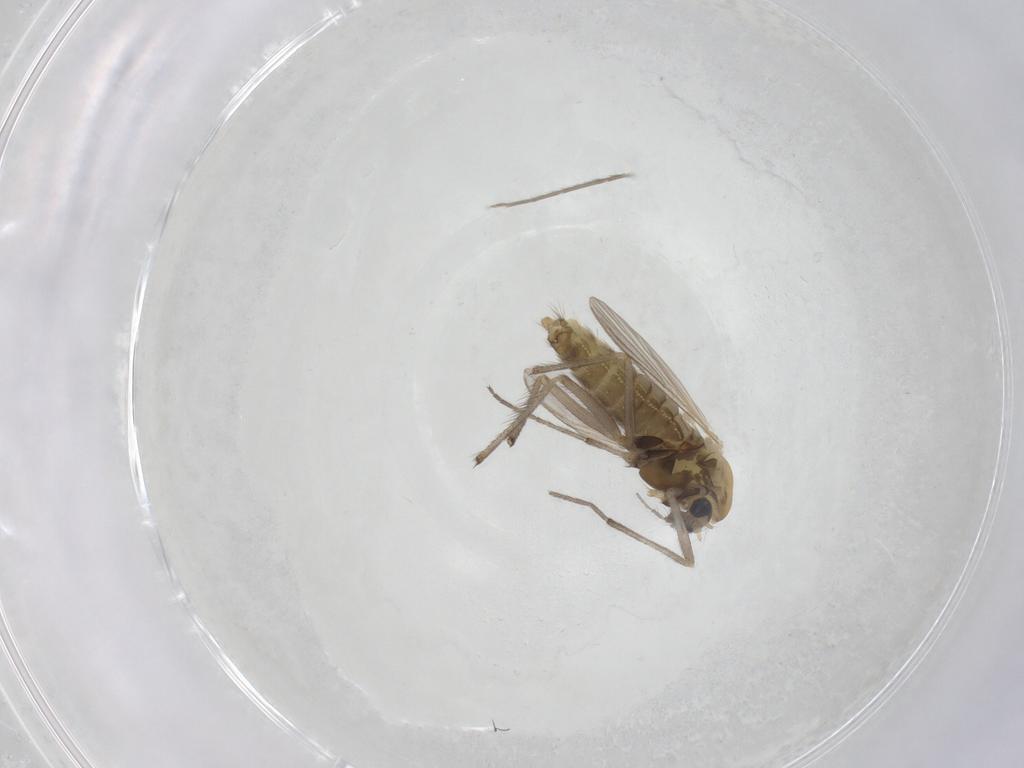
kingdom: Animalia
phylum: Arthropoda
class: Insecta
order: Diptera
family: Chironomidae
